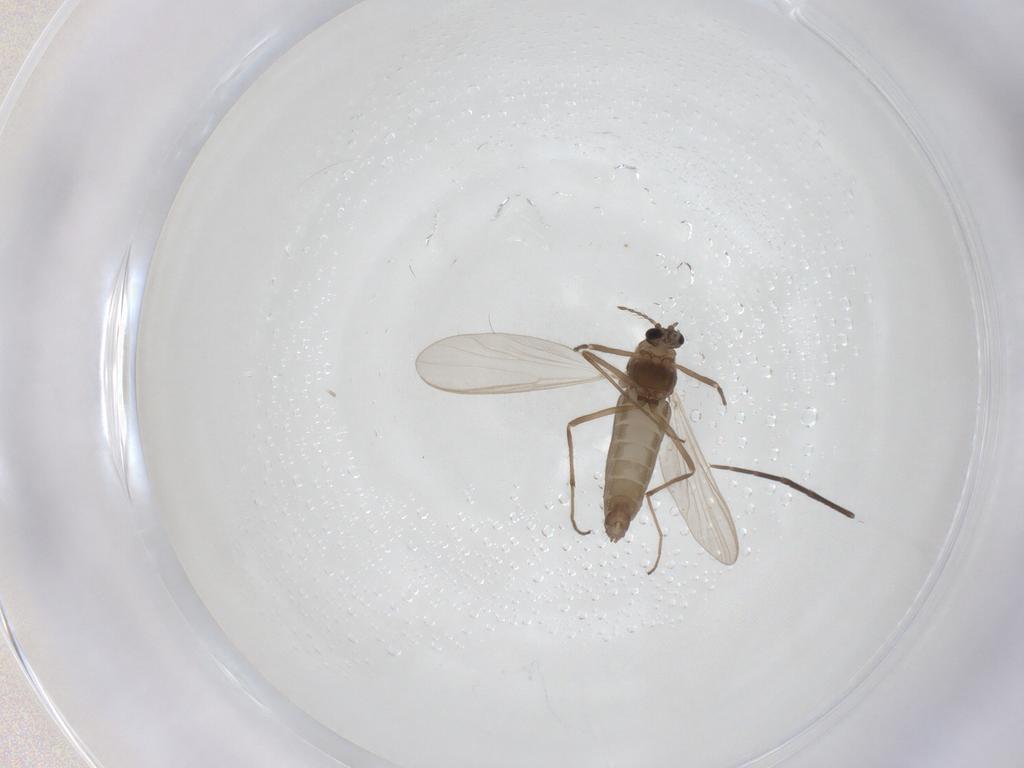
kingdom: Animalia
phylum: Arthropoda
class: Insecta
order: Diptera
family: Chironomidae
